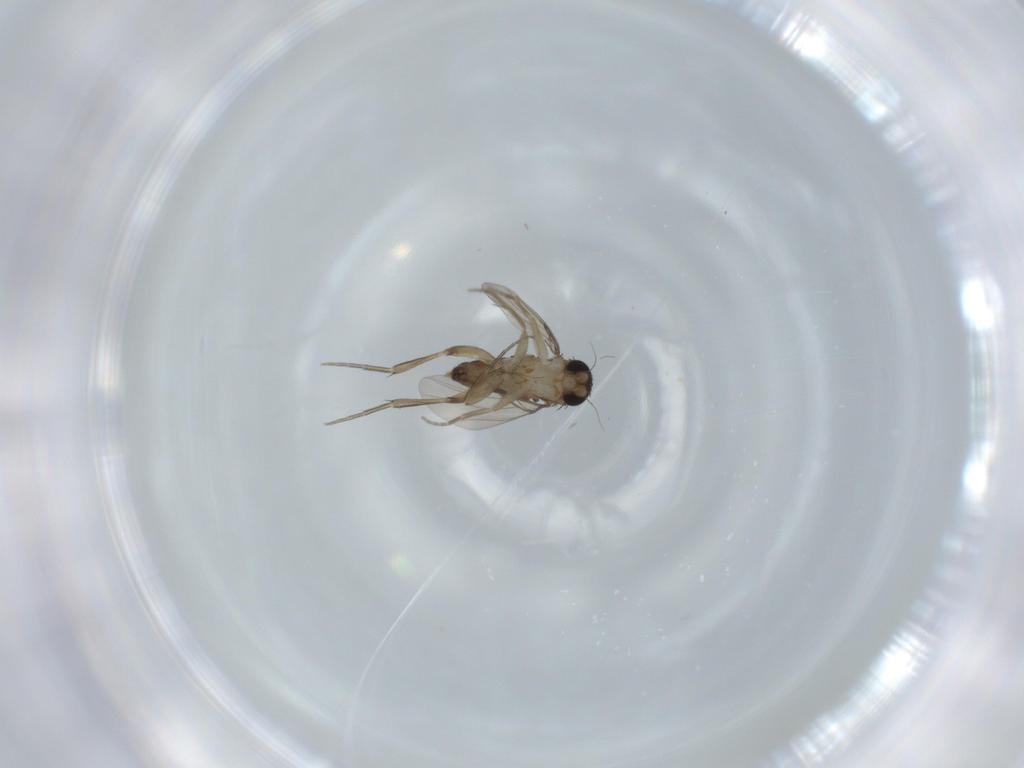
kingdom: Animalia
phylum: Arthropoda
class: Insecta
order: Diptera
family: Phoridae
